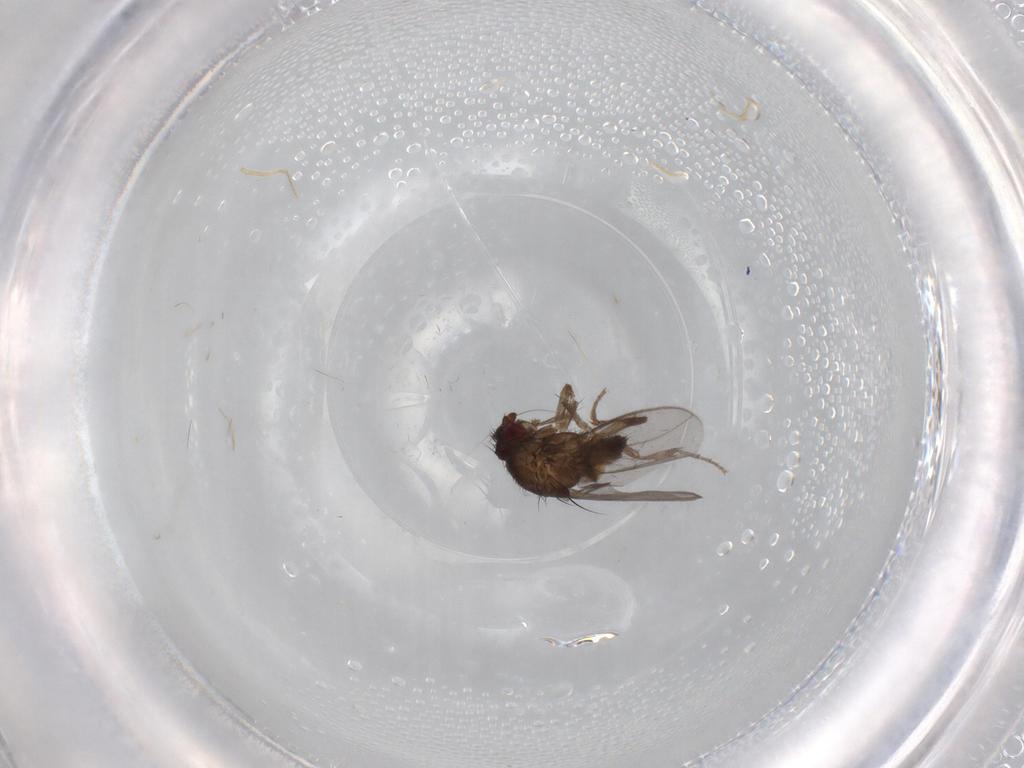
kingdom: Animalia
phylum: Arthropoda
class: Insecta
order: Diptera
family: Sphaeroceridae
